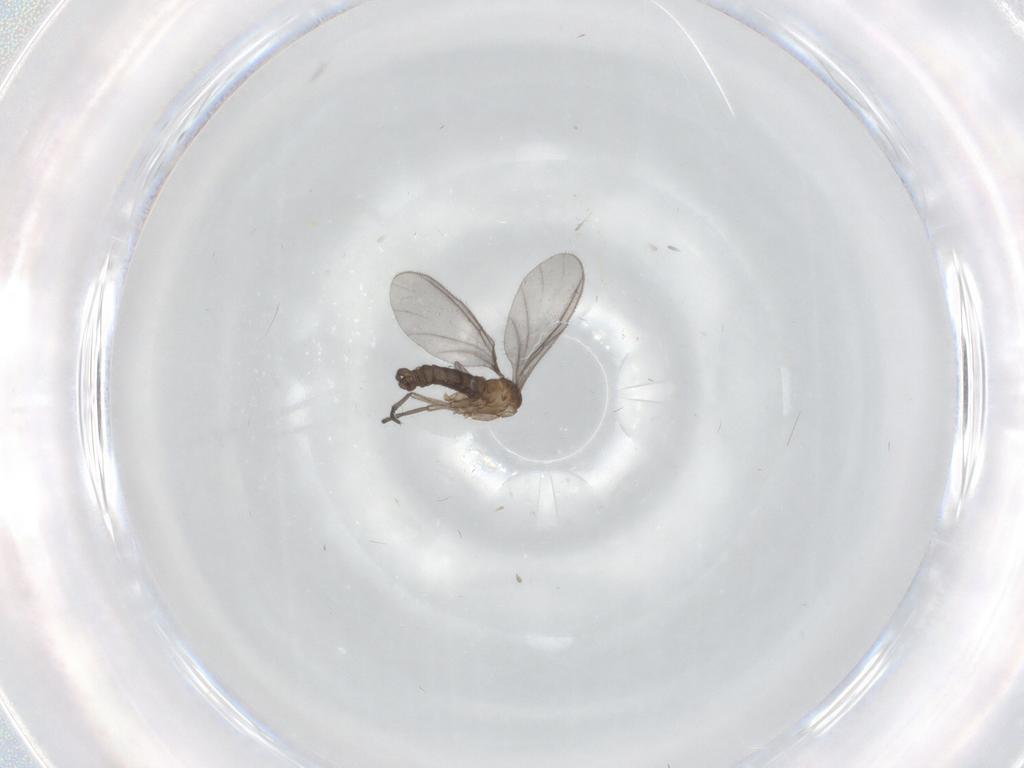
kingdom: Animalia
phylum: Arthropoda
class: Insecta
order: Diptera
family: Sciaridae
